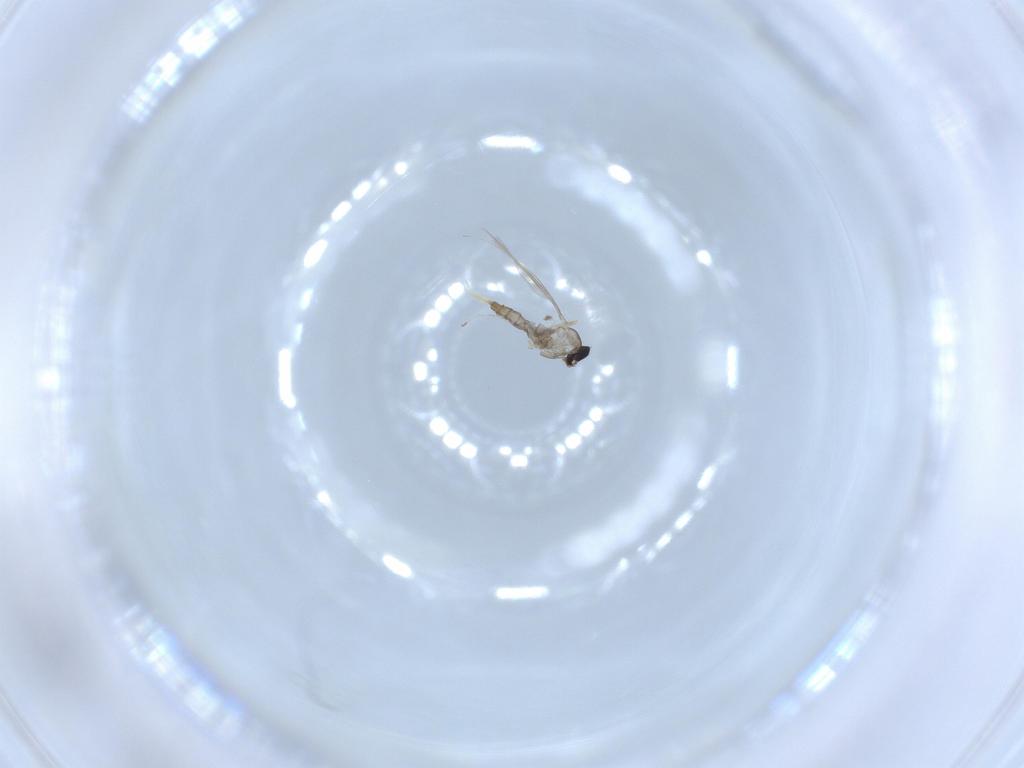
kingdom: Animalia
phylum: Arthropoda
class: Insecta
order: Diptera
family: Cecidomyiidae
